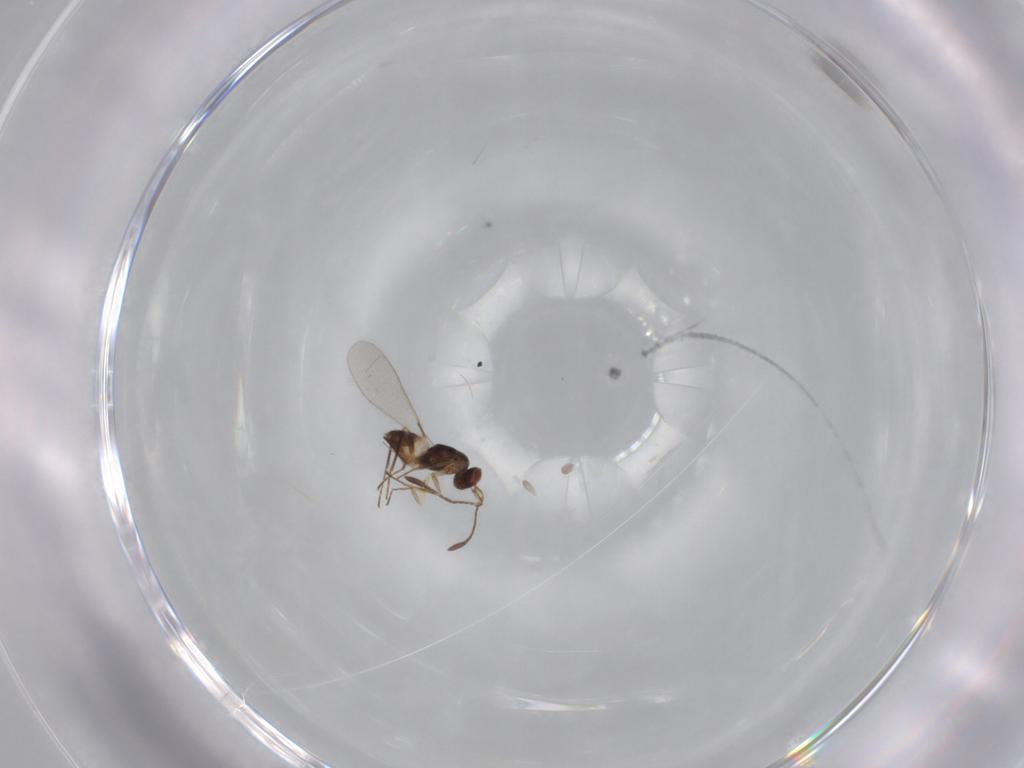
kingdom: Animalia
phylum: Arthropoda
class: Insecta
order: Hymenoptera
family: Mymaridae
